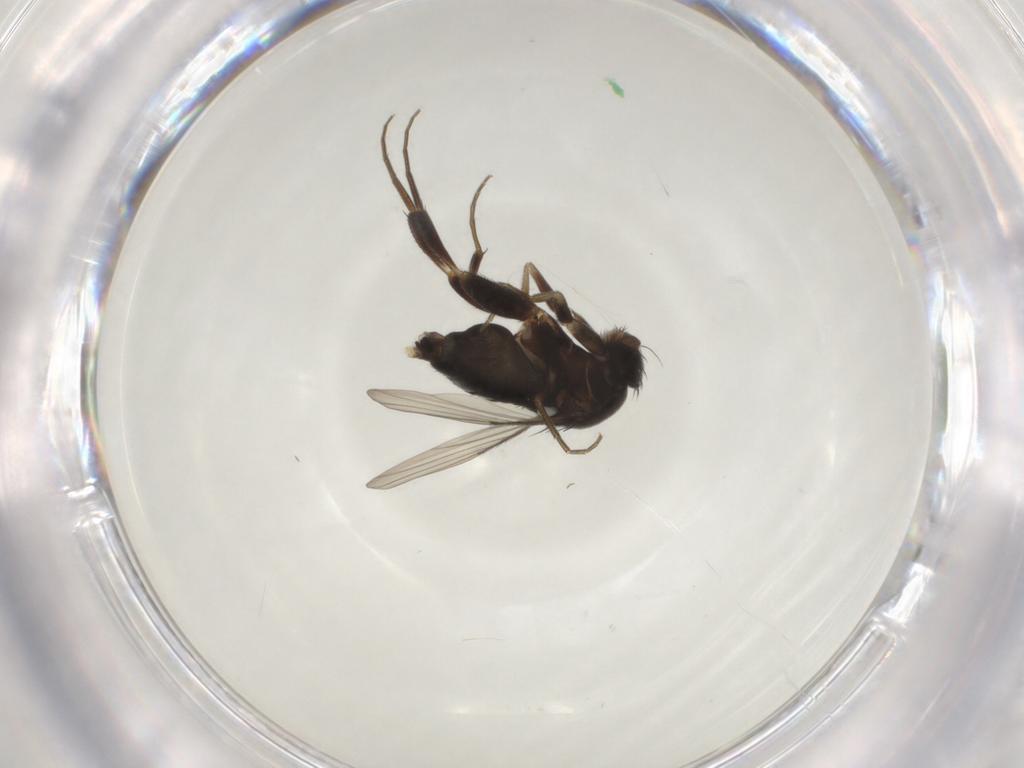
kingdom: Animalia
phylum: Arthropoda
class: Insecta
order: Diptera
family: Phoridae
